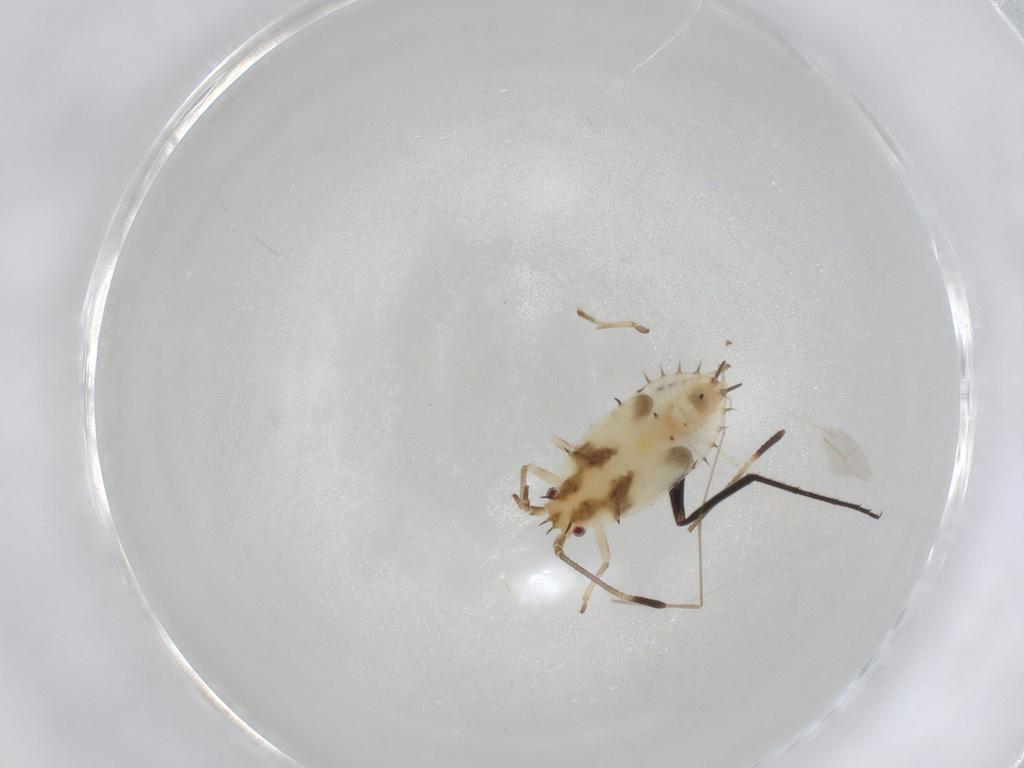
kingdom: Animalia
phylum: Arthropoda
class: Insecta
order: Hemiptera
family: Tingidae
